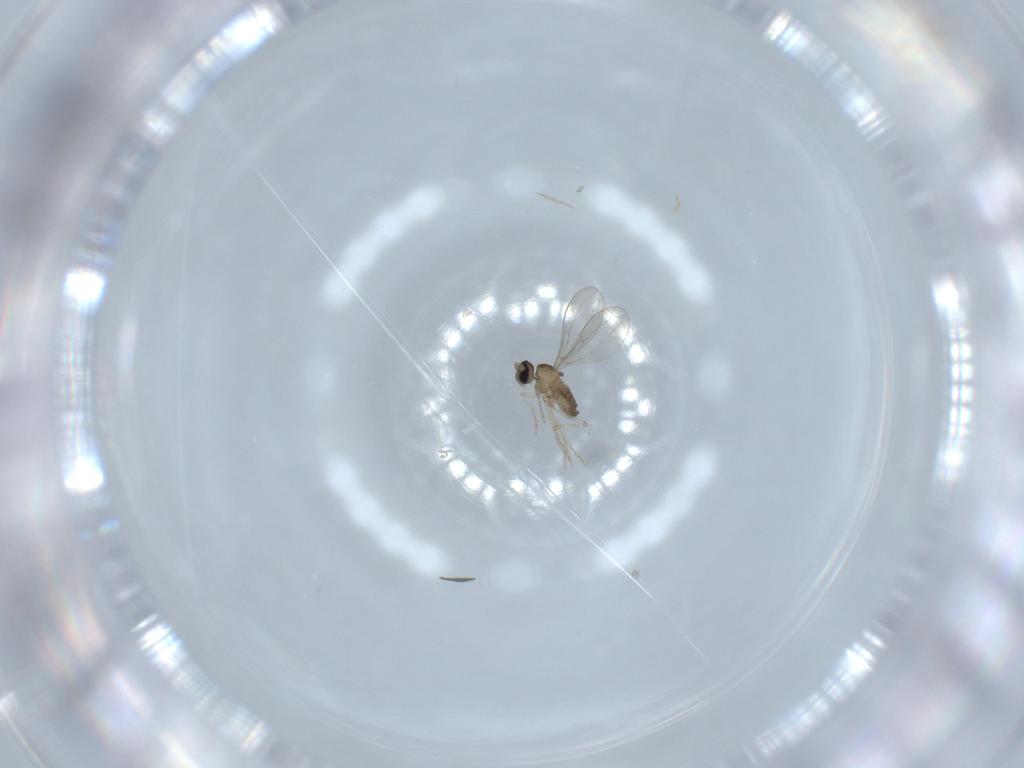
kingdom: Animalia
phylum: Arthropoda
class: Insecta
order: Diptera
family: Cecidomyiidae
